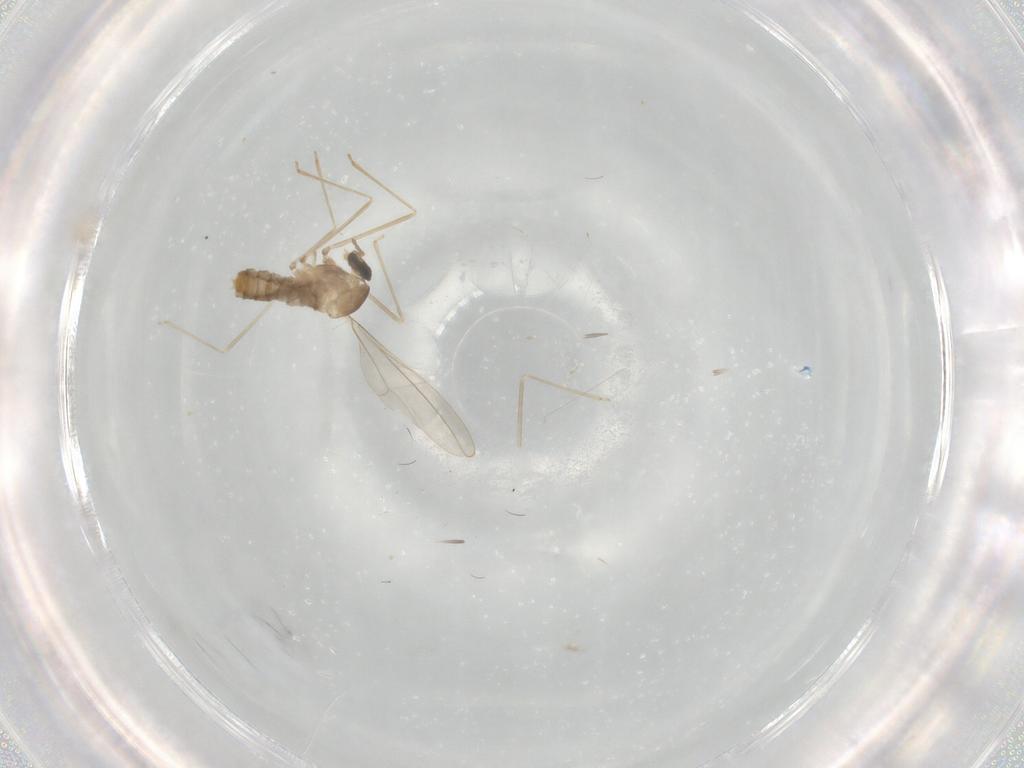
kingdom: Animalia
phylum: Arthropoda
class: Insecta
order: Diptera
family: Cecidomyiidae
